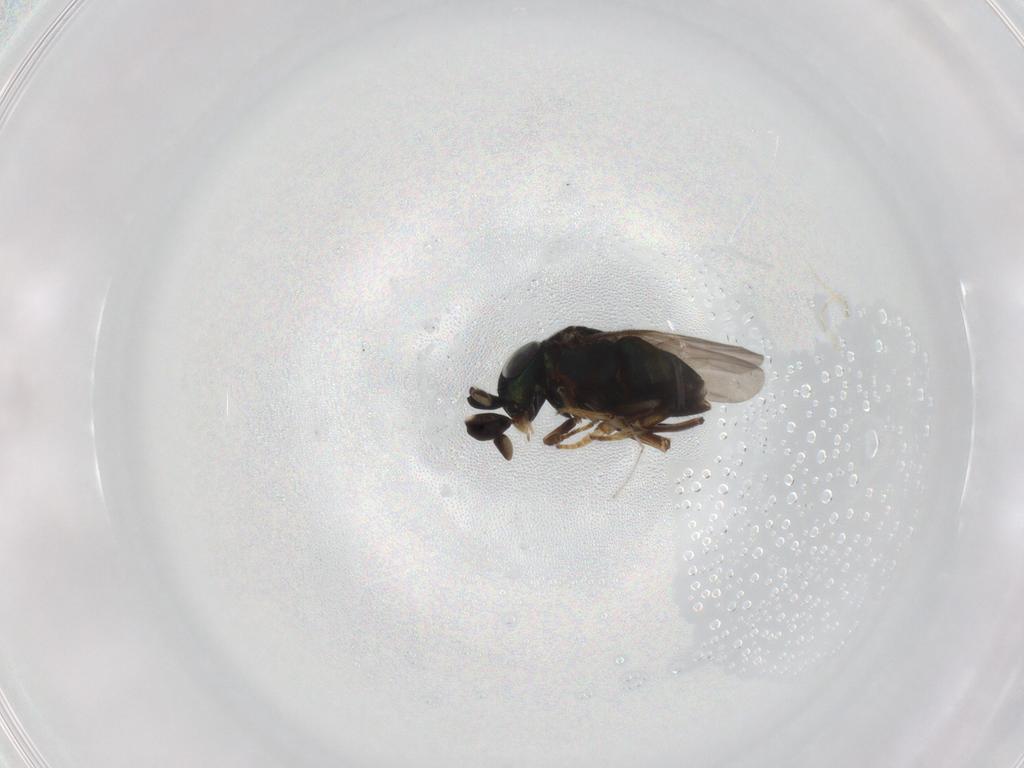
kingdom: Animalia
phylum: Arthropoda
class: Insecta
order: Hymenoptera
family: Encyrtidae
